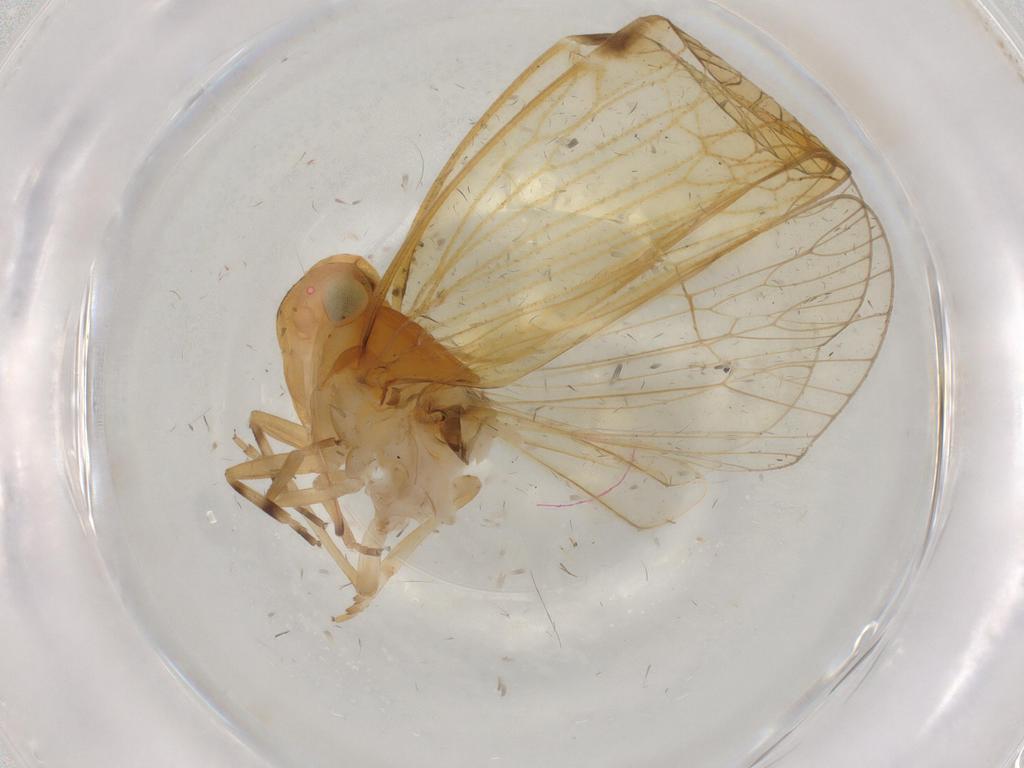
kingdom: Animalia
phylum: Arthropoda
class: Insecta
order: Hemiptera
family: Cixiidae
